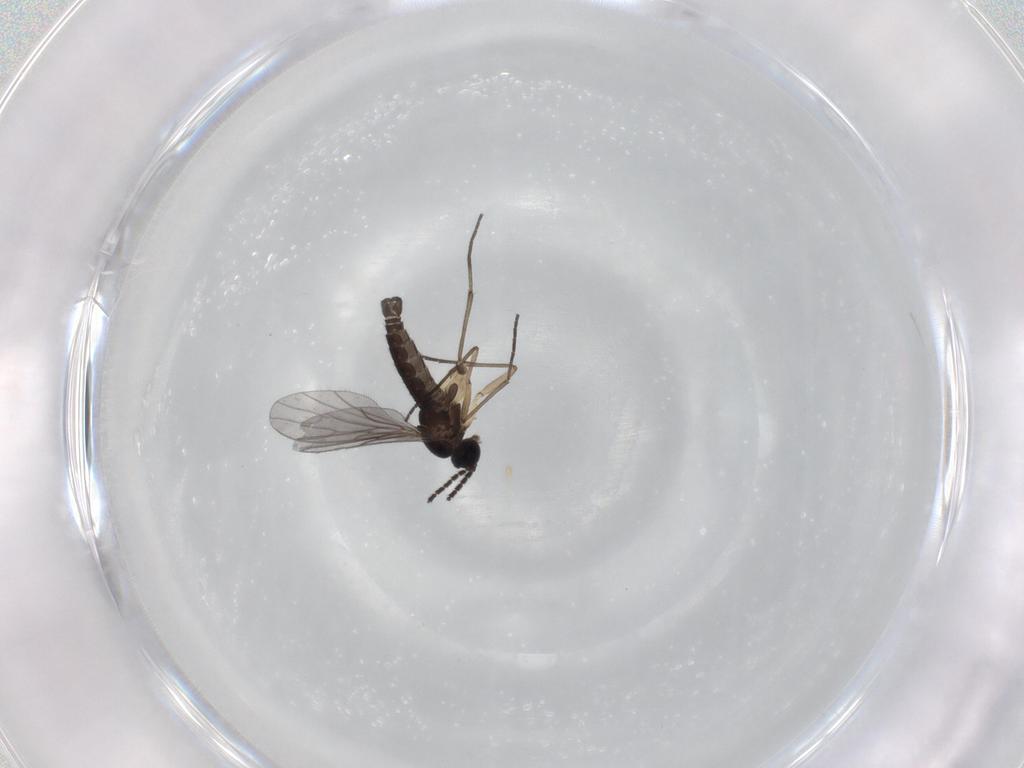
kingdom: Animalia
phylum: Arthropoda
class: Insecta
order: Diptera
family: Sciaridae
